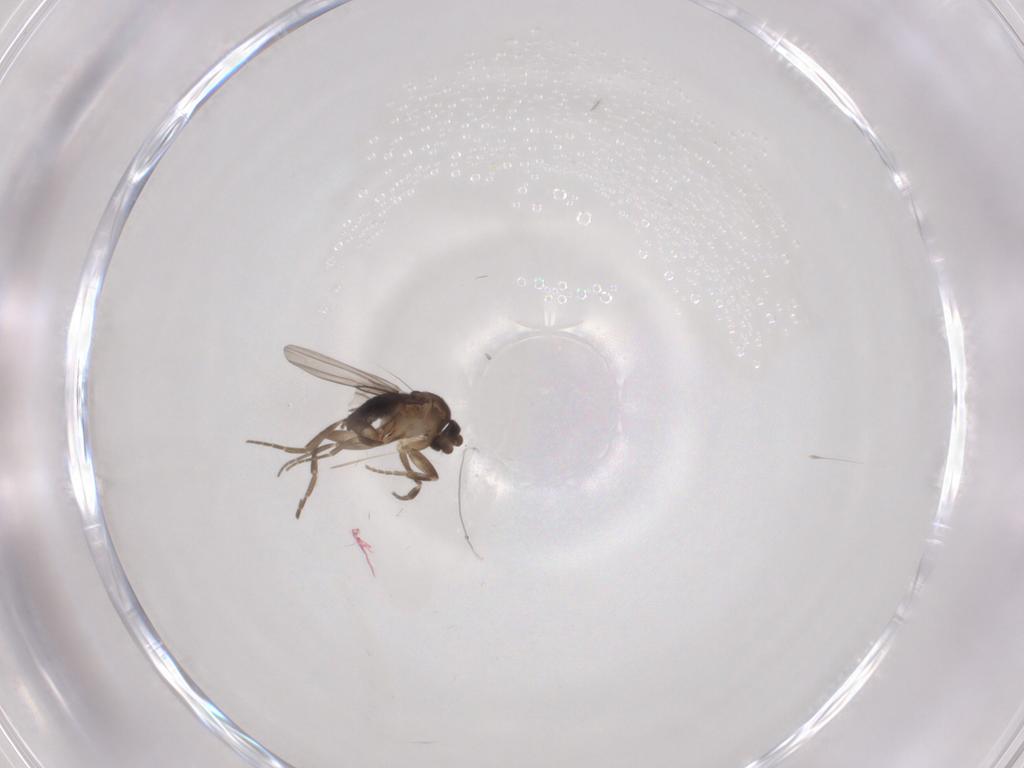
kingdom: Animalia
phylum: Arthropoda
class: Insecta
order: Diptera
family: Phoridae
